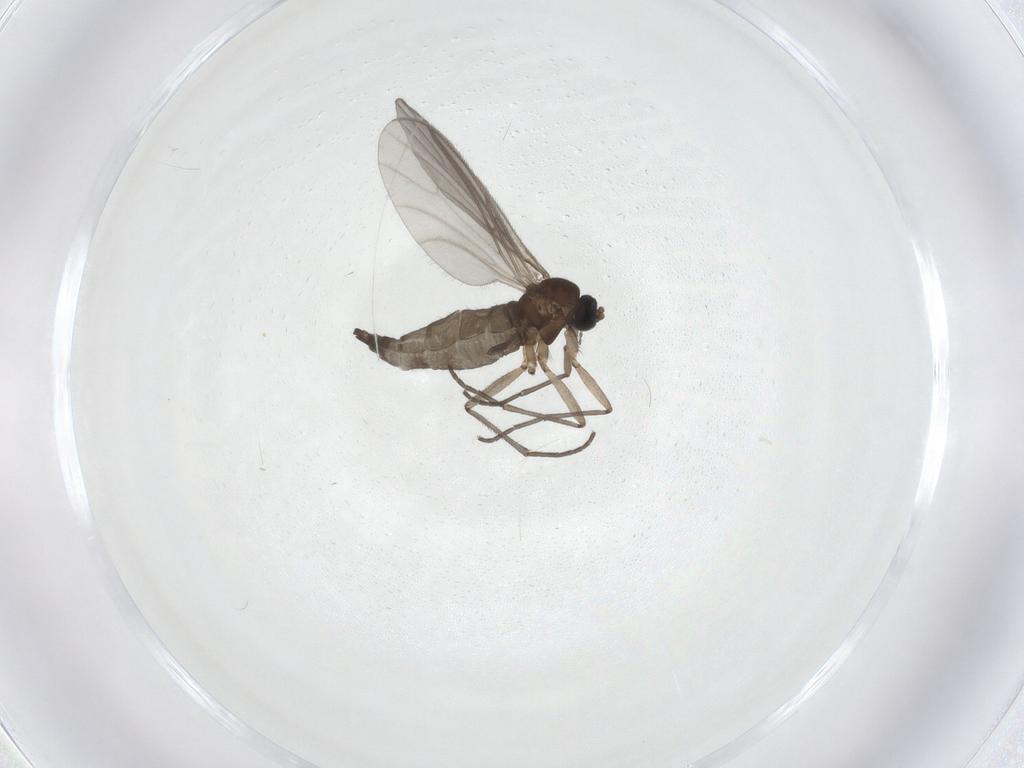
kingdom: Animalia
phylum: Arthropoda
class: Insecta
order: Diptera
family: Sciaridae
